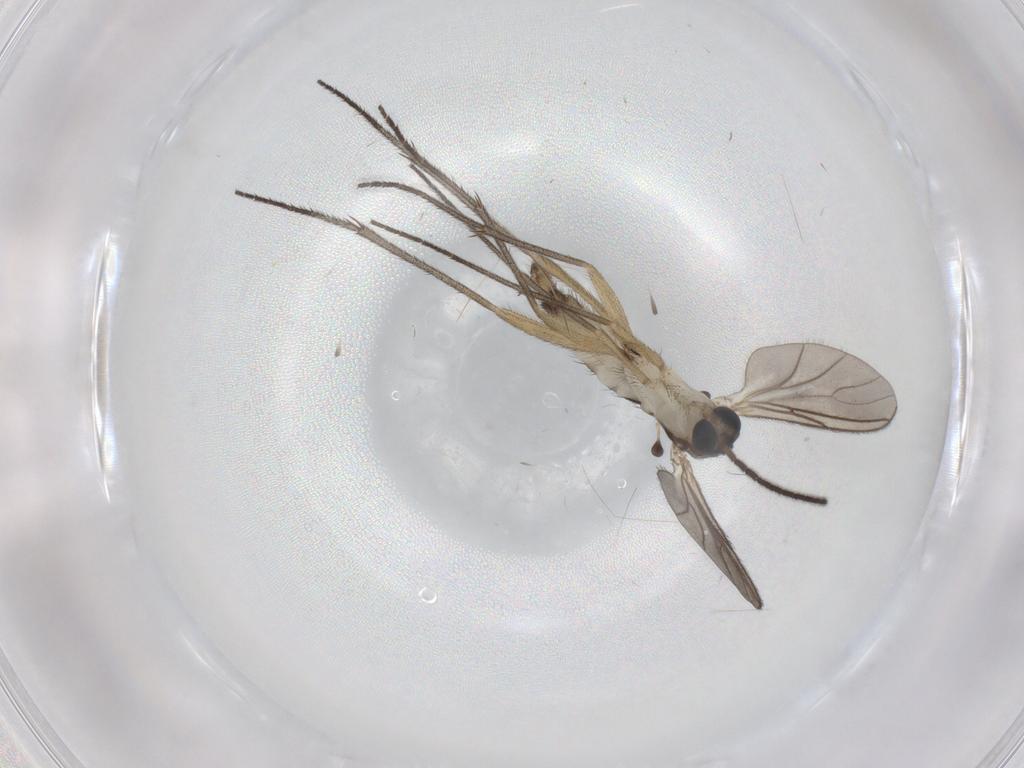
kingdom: Animalia
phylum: Arthropoda
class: Insecta
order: Diptera
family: Sciaridae
